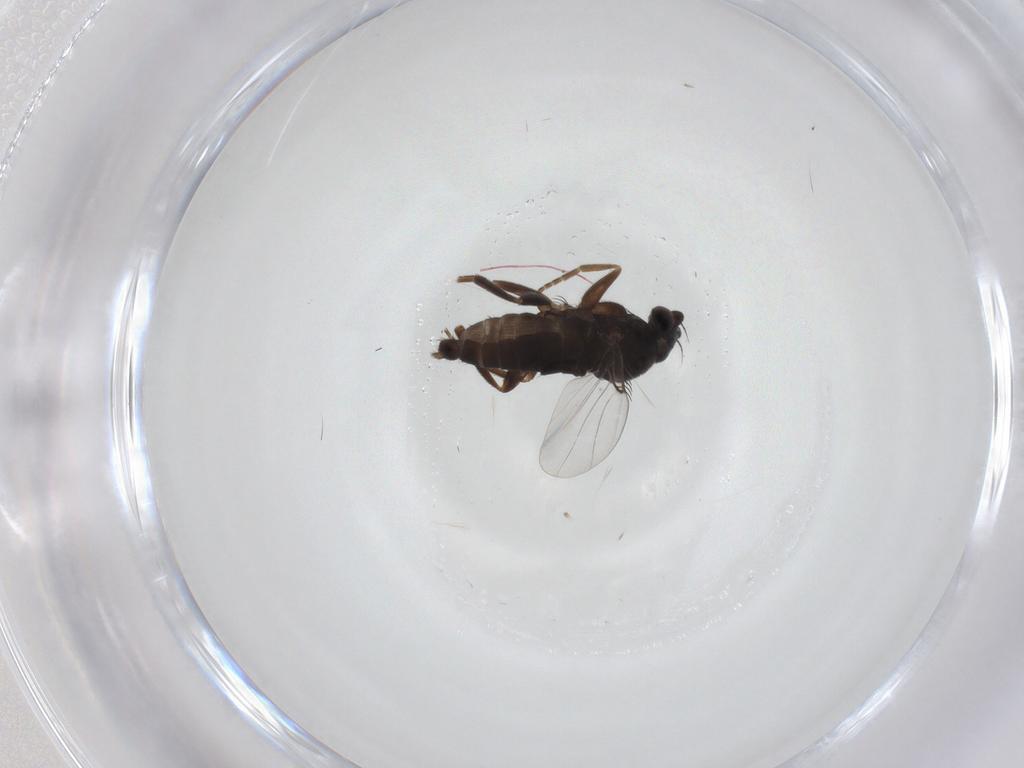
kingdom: Animalia
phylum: Arthropoda
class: Insecta
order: Diptera
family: Phoridae
